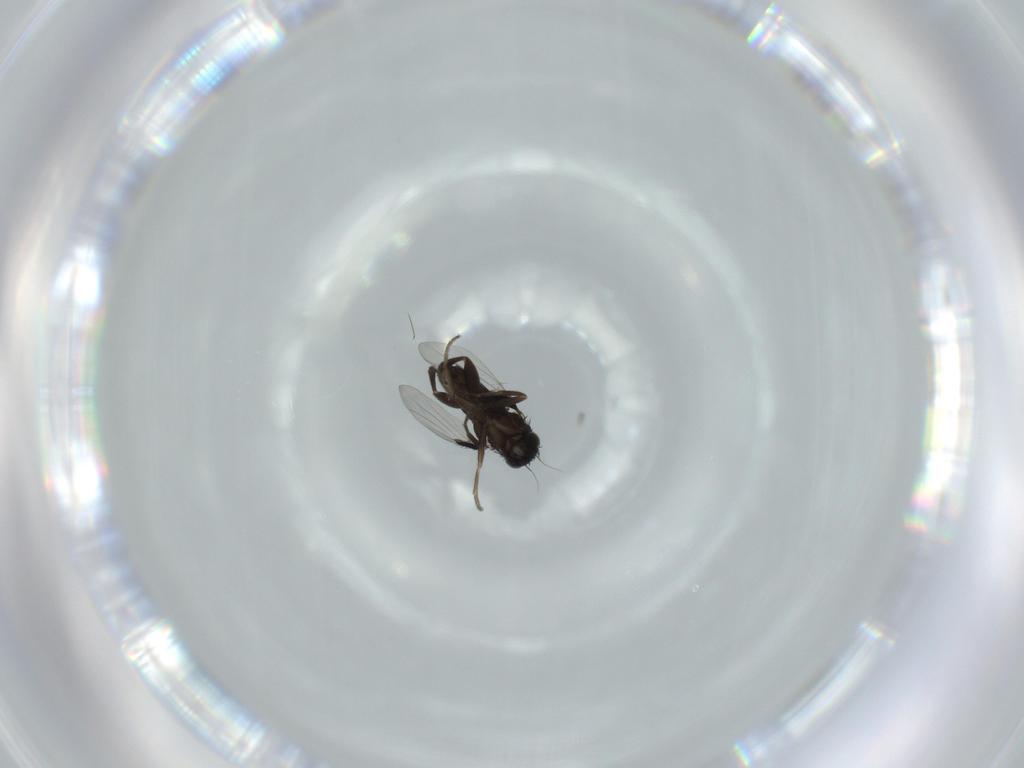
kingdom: Animalia
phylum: Arthropoda
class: Insecta
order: Diptera
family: Phoridae
